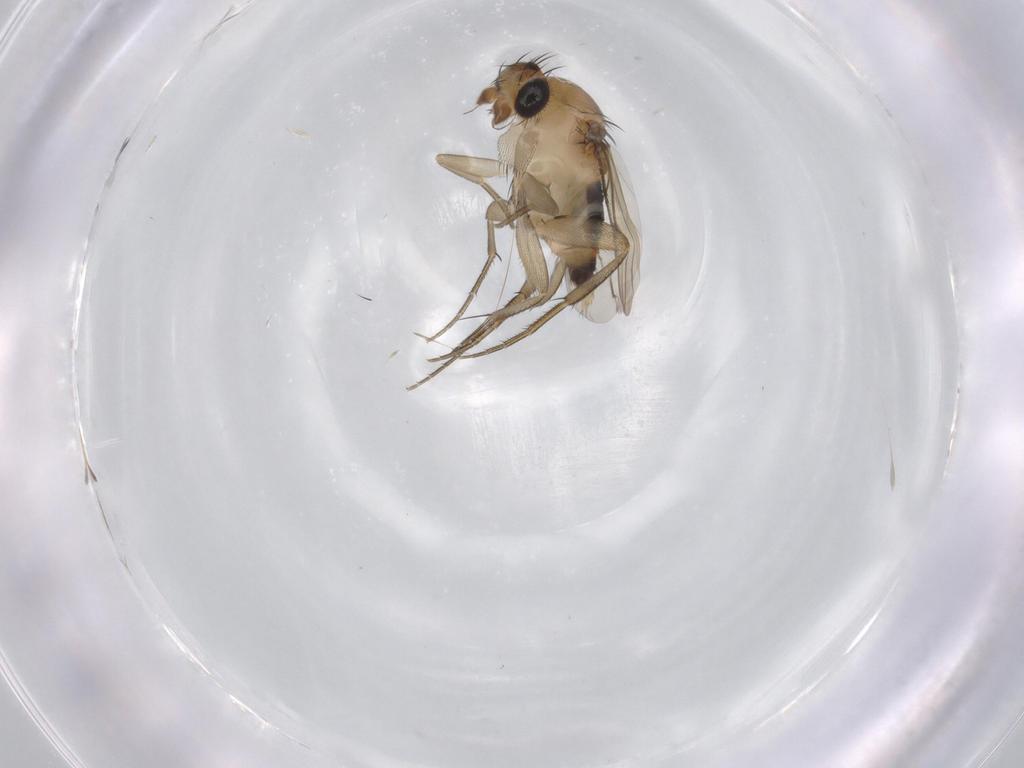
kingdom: Animalia
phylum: Arthropoda
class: Insecta
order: Diptera
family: Phoridae
